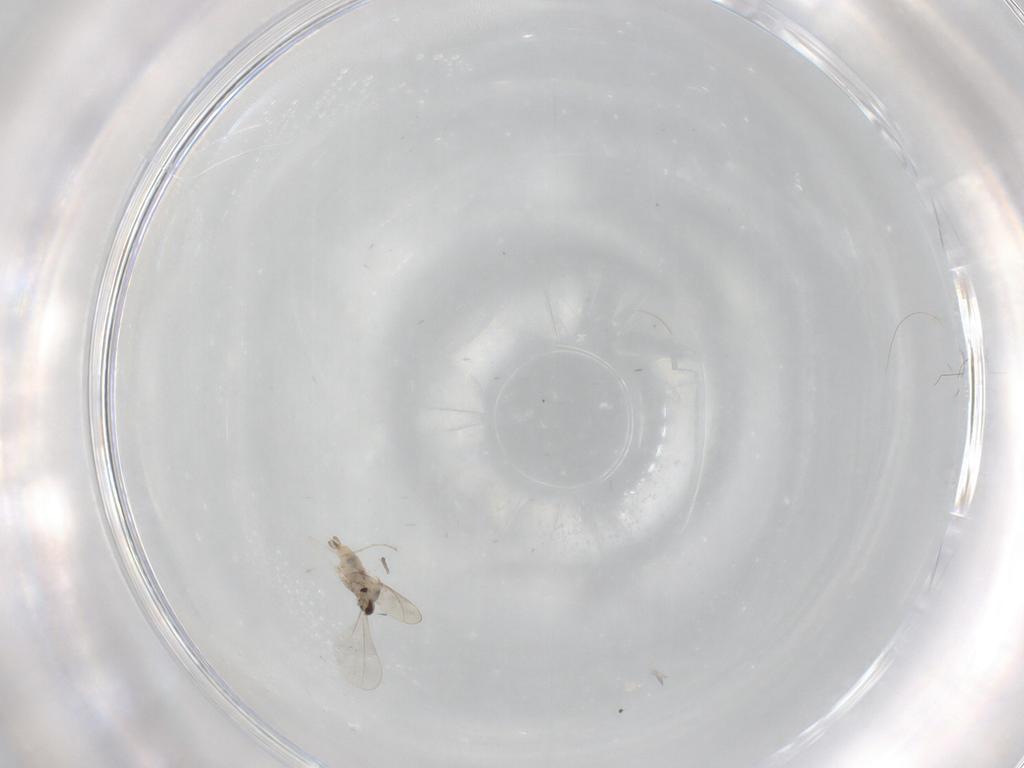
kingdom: Animalia
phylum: Arthropoda
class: Insecta
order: Diptera
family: Cecidomyiidae
